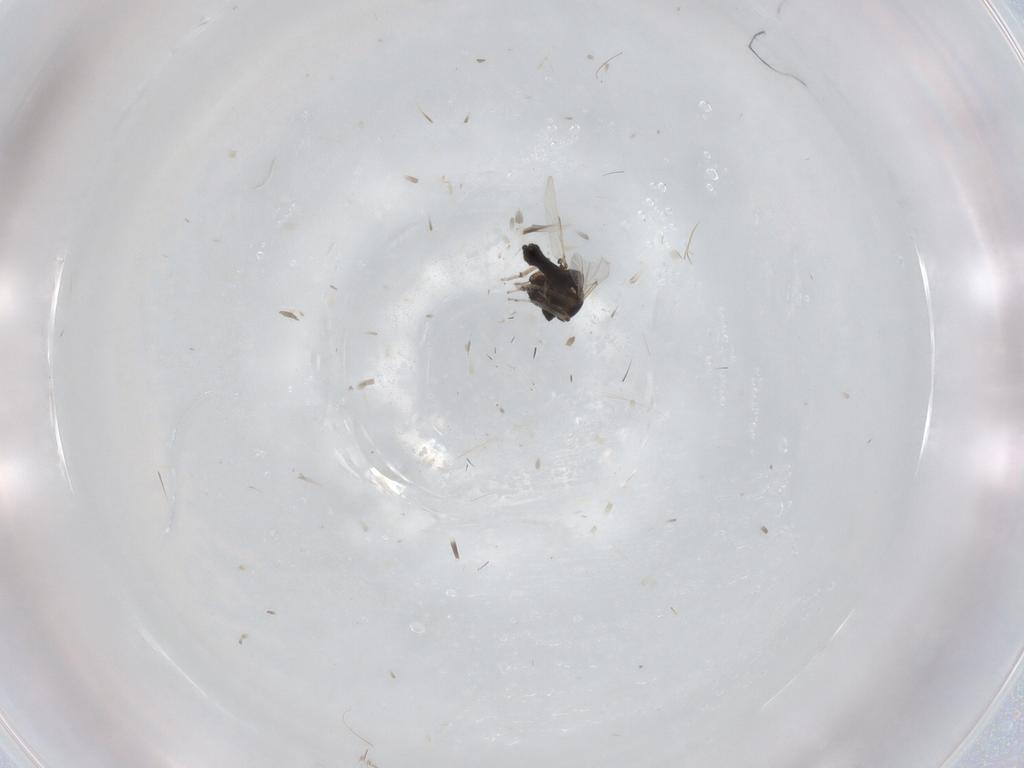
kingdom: Animalia
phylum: Arthropoda
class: Insecta
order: Diptera
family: Ceratopogonidae
